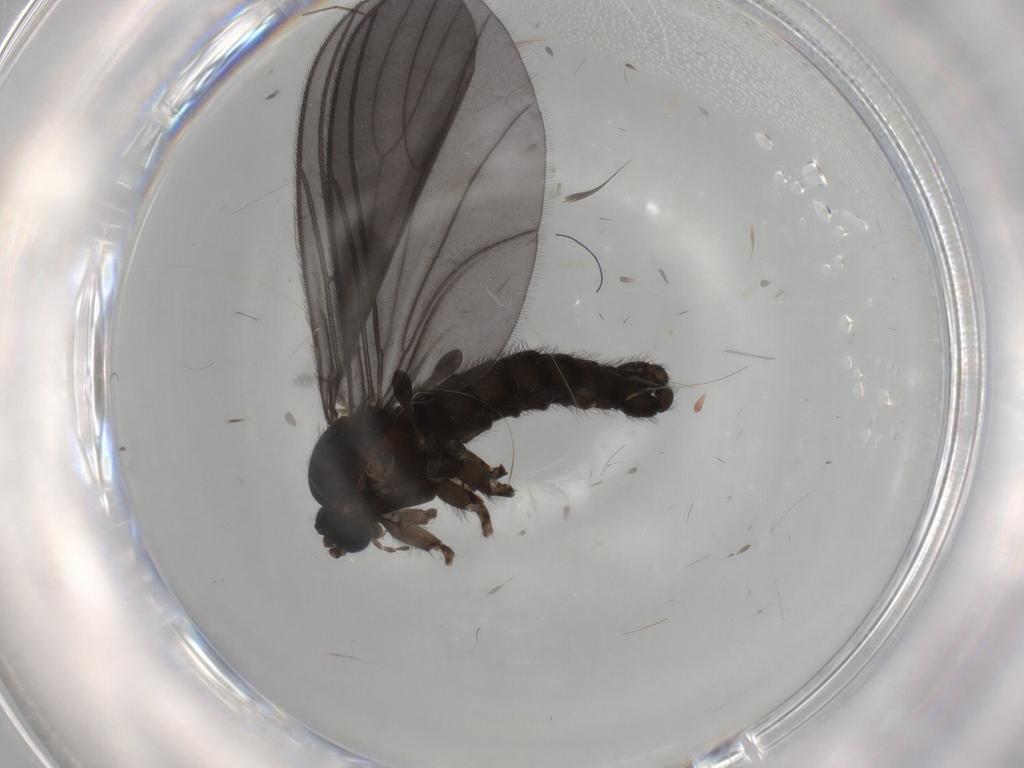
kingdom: Animalia
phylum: Arthropoda
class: Insecta
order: Diptera
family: Sciaridae
